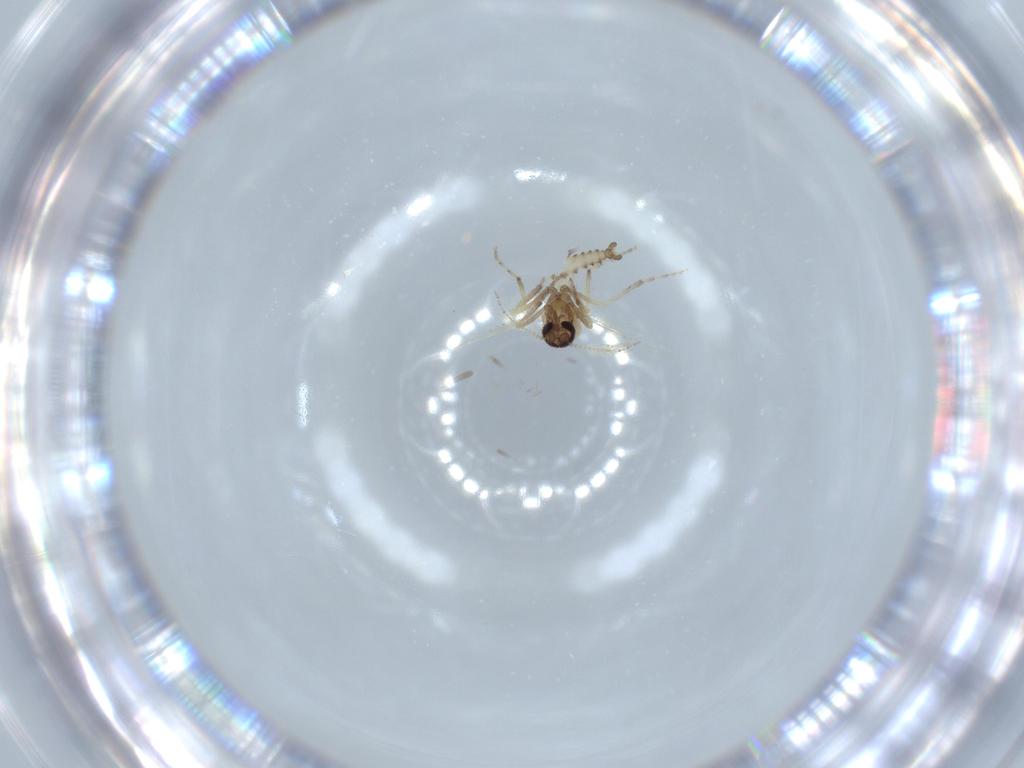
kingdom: Animalia
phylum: Arthropoda
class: Insecta
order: Diptera
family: Ceratopogonidae
